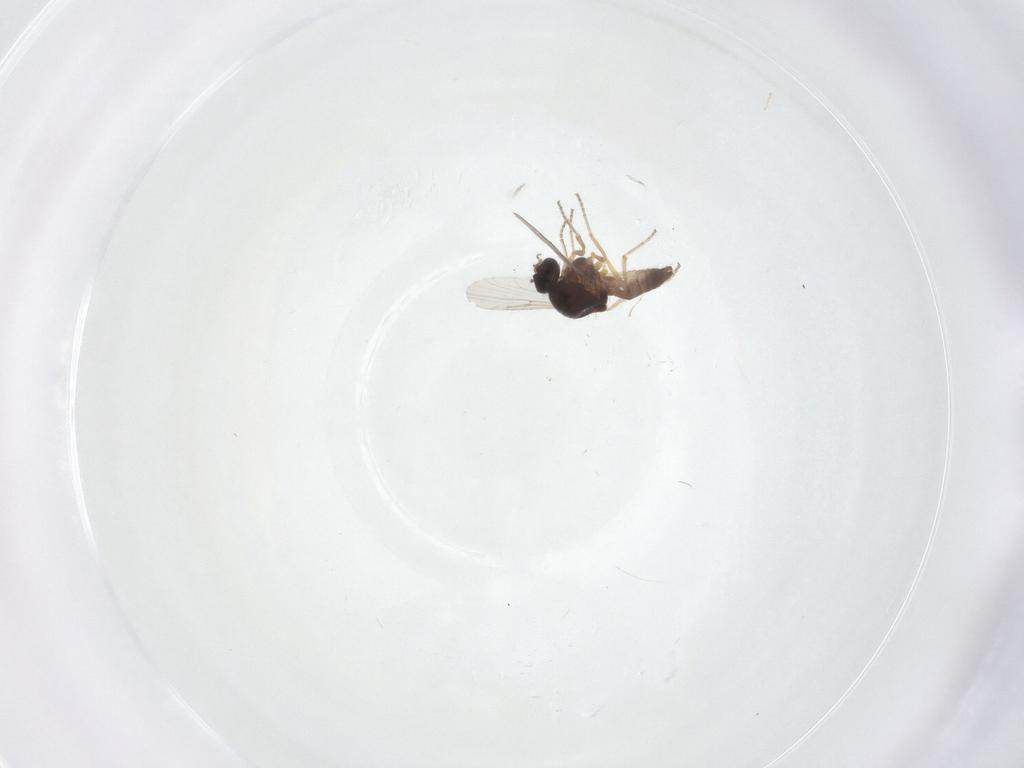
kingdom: Animalia
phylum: Arthropoda
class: Insecta
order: Diptera
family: Ceratopogonidae
